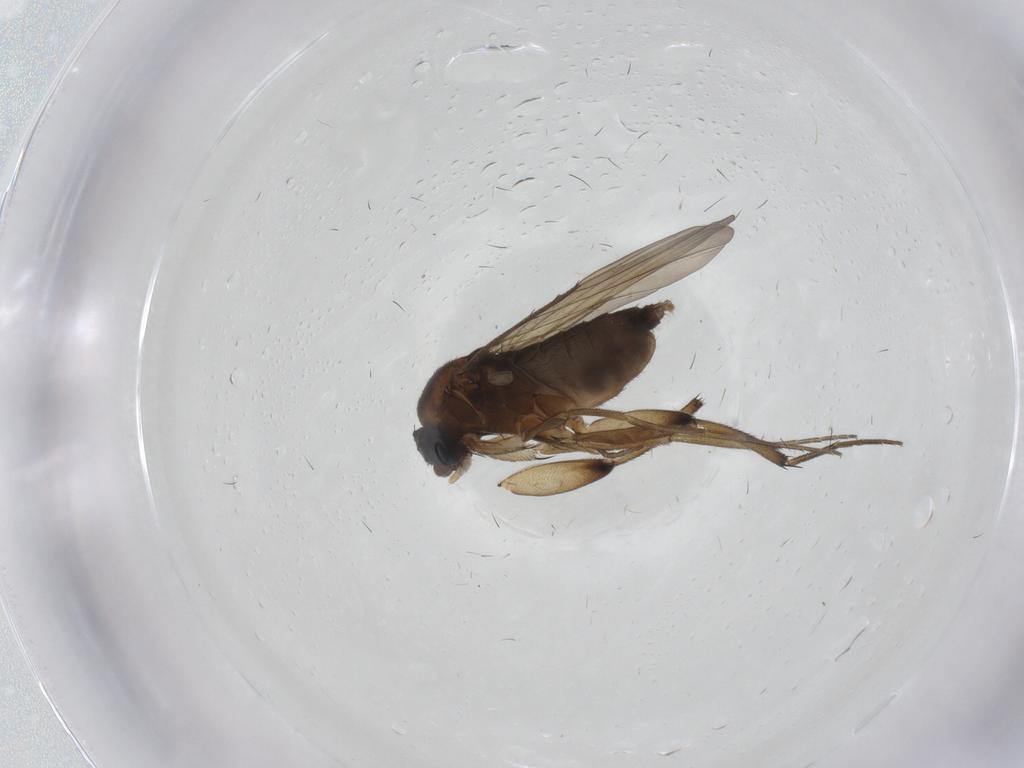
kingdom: Animalia
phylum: Arthropoda
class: Insecta
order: Diptera
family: Phoridae
